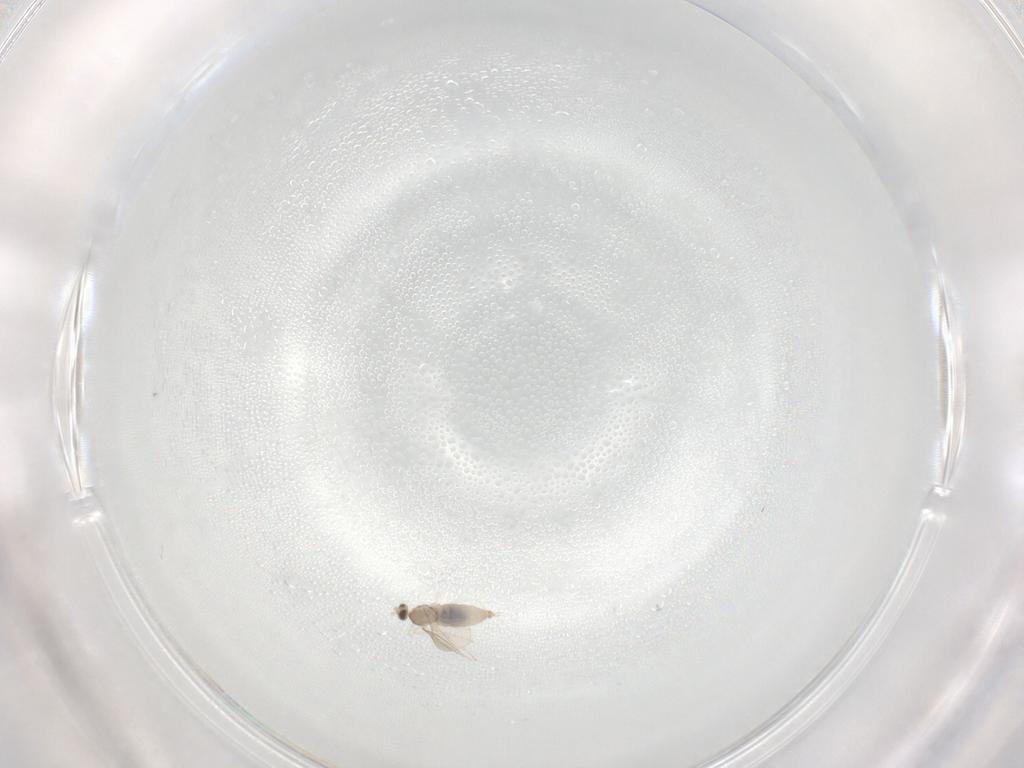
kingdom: Animalia
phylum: Arthropoda
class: Insecta
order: Diptera
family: Cecidomyiidae
